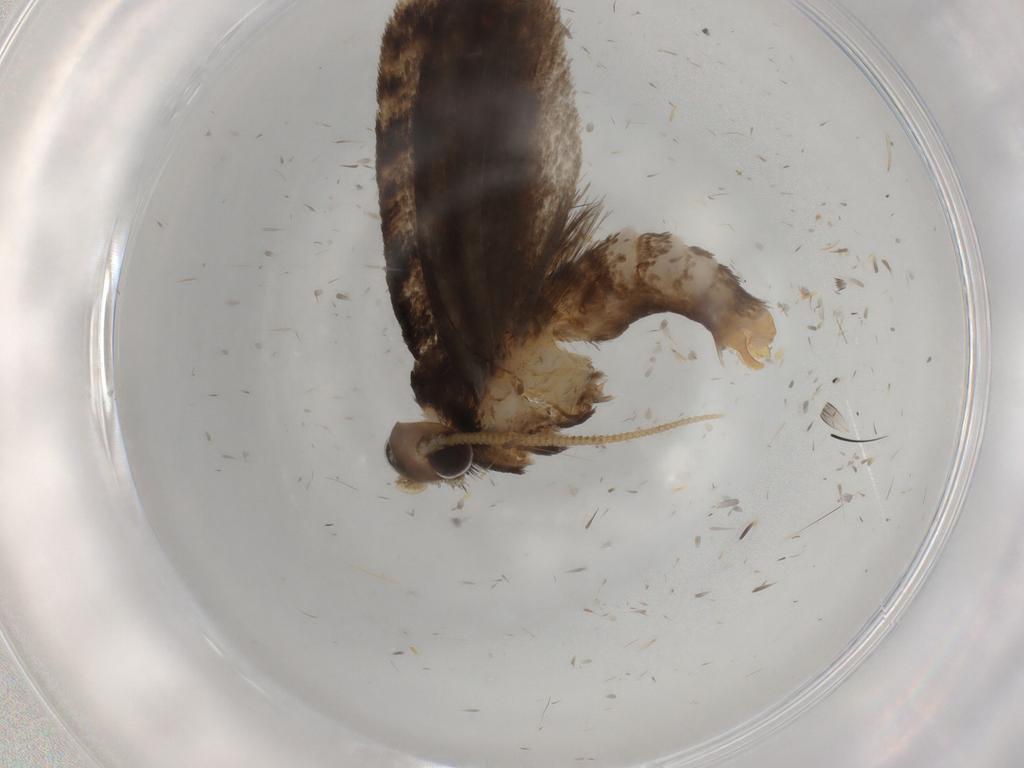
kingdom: Animalia
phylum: Arthropoda
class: Insecta
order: Lepidoptera
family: Tineidae
